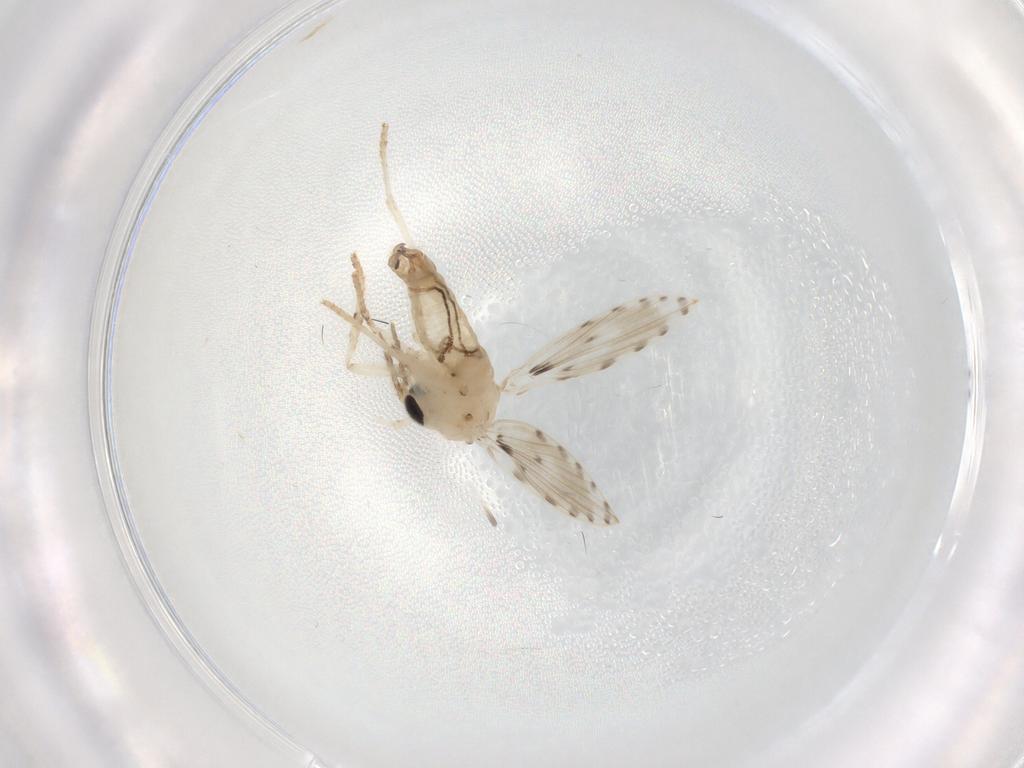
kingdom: Animalia
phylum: Arthropoda
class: Insecta
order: Diptera
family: Psychodidae
